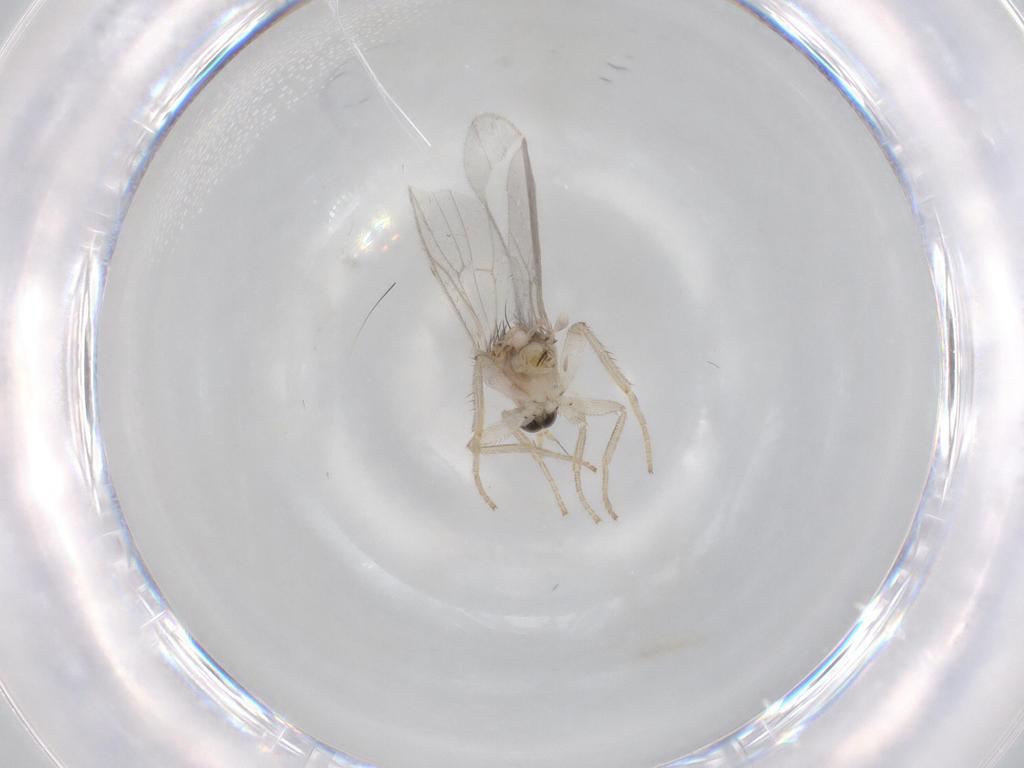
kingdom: Animalia
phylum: Arthropoda
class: Insecta
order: Diptera
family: Hybotidae
